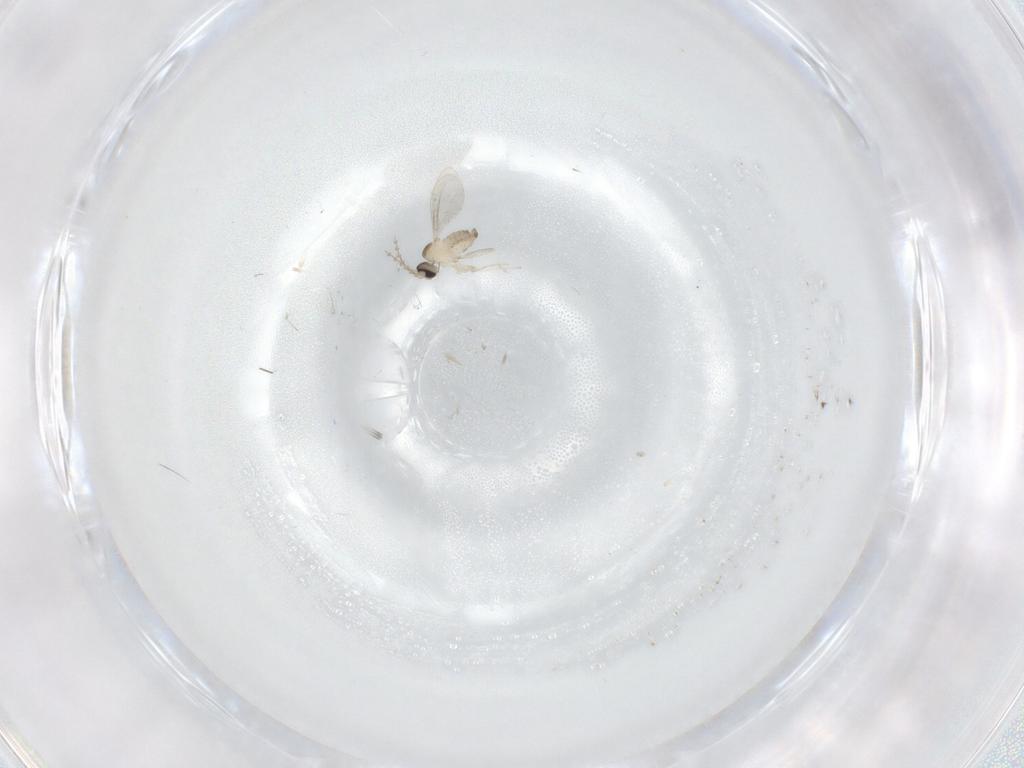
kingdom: Animalia
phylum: Arthropoda
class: Insecta
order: Diptera
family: Cecidomyiidae
